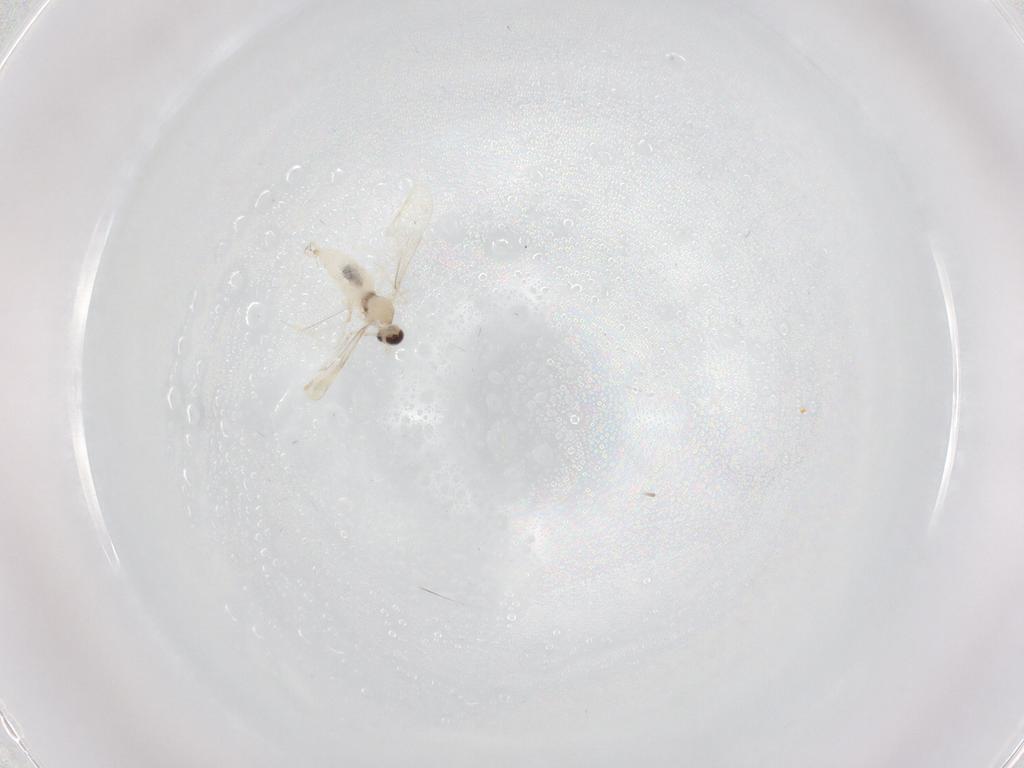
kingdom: Animalia
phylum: Arthropoda
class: Insecta
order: Diptera
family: Cecidomyiidae
